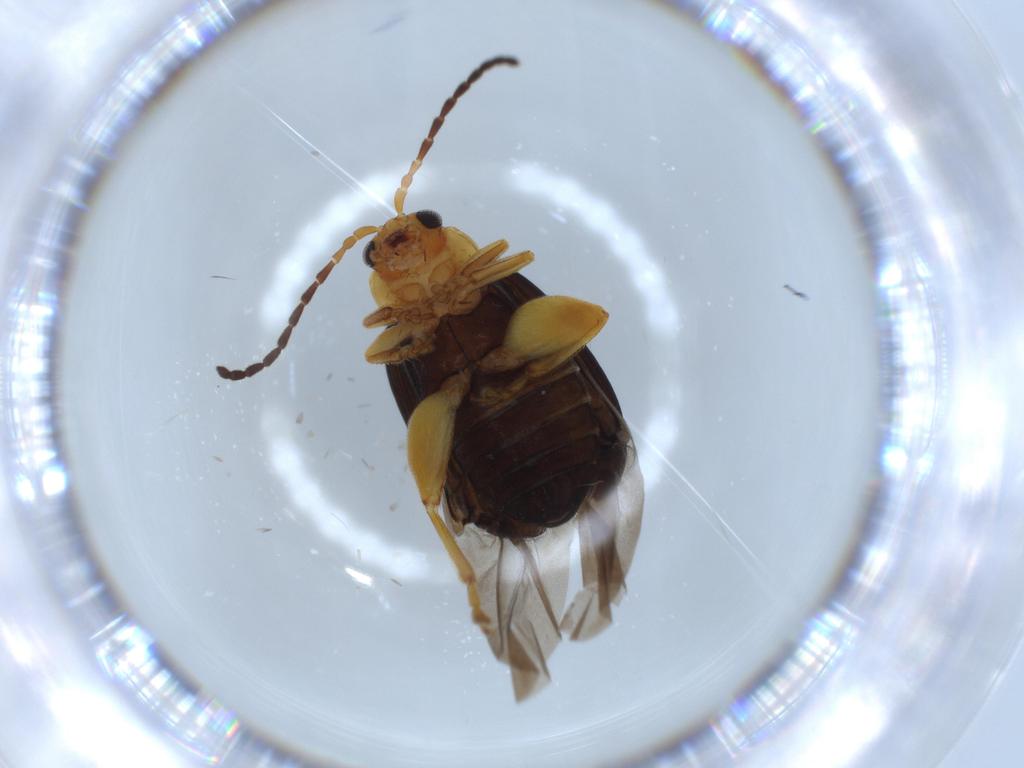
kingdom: Animalia
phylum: Arthropoda
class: Insecta
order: Coleoptera
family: Chrysomelidae
